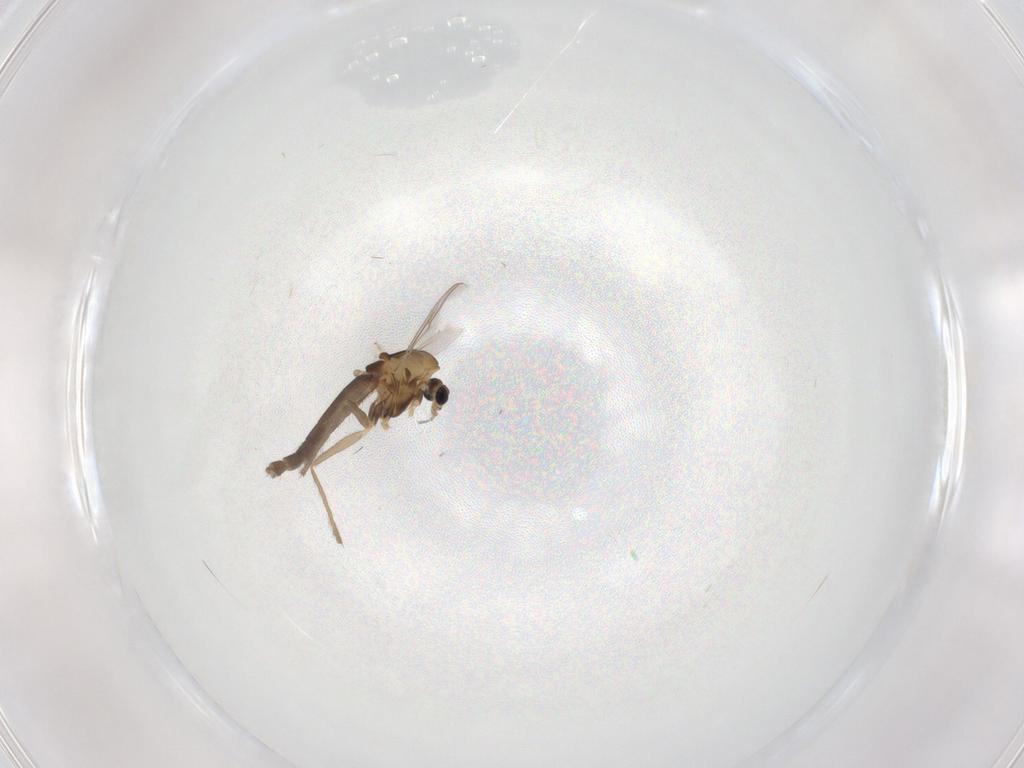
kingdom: Animalia
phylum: Arthropoda
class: Insecta
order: Diptera
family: Chironomidae
